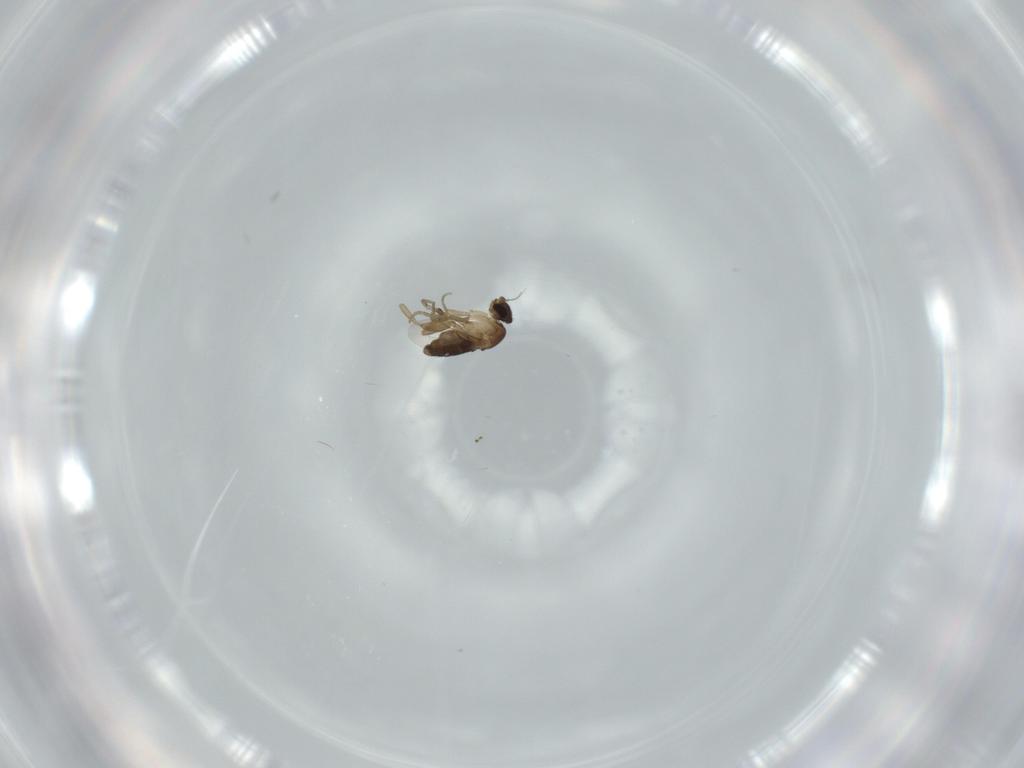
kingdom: Animalia
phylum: Arthropoda
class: Insecta
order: Diptera
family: Phoridae
